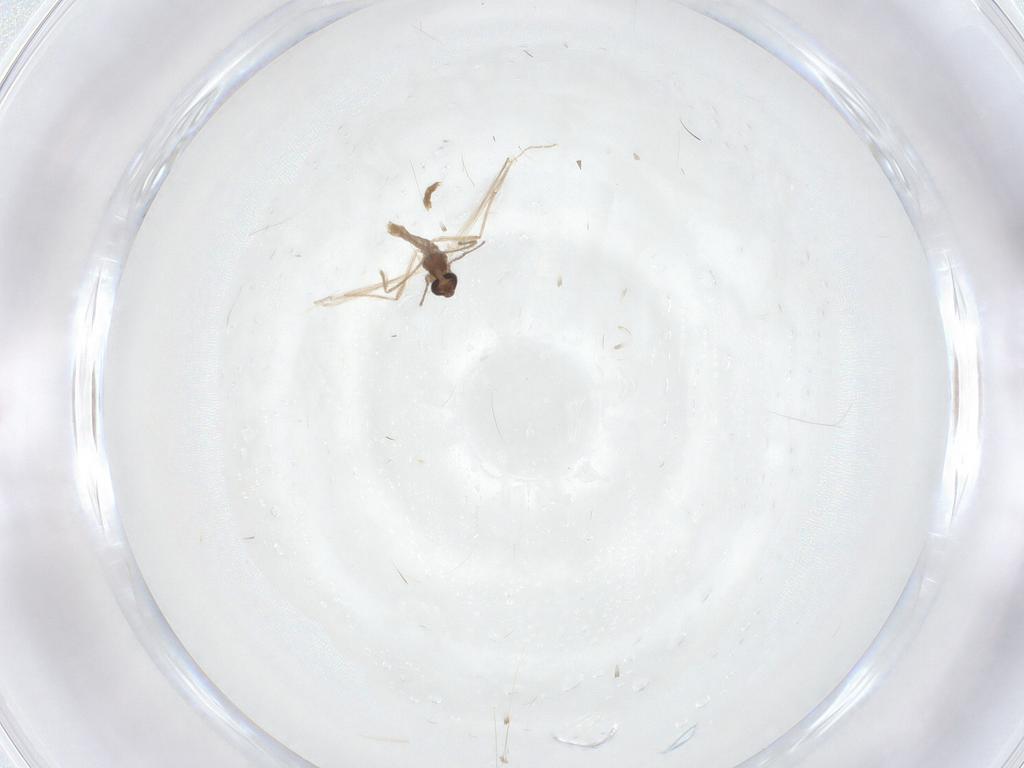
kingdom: Animalia
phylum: Arthropoda
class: Insecta
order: Diptera
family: Chironomidae
